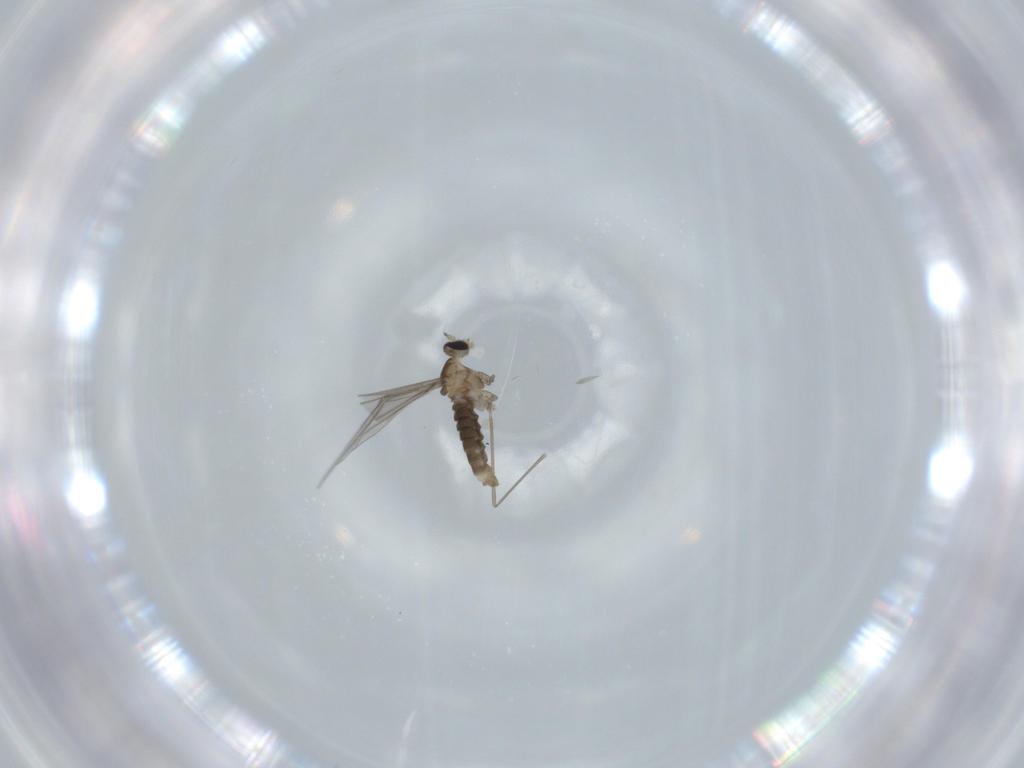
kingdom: Animalia
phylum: Arthropoda
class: Insecta
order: Diptera
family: Cecidomyiidae
